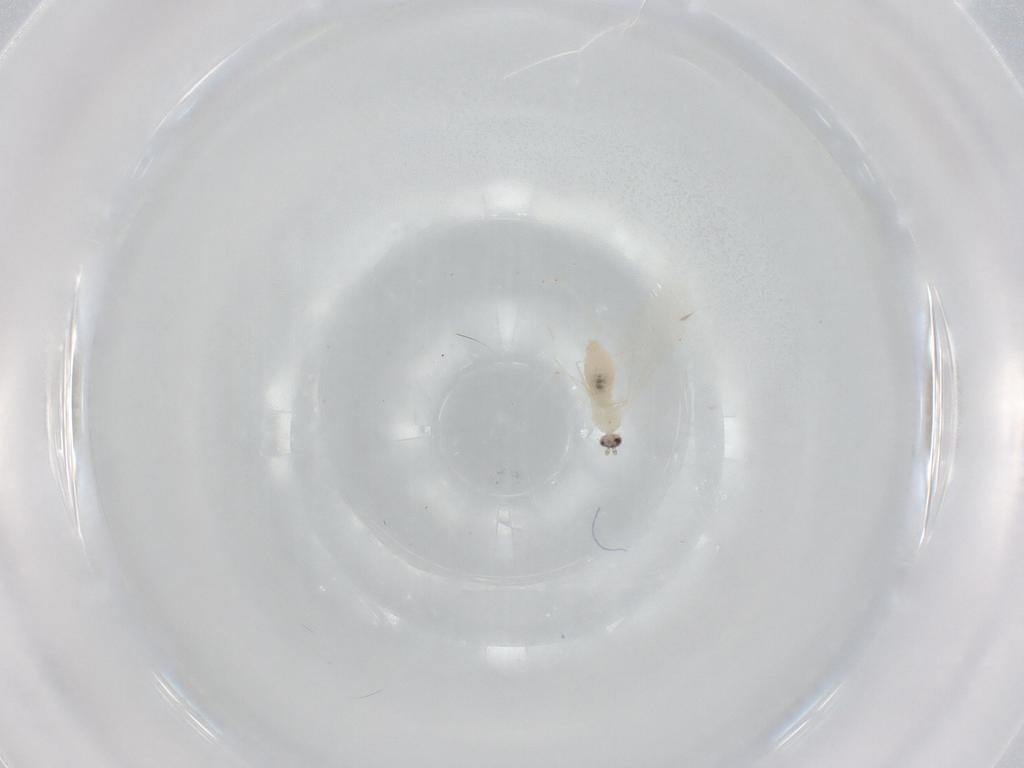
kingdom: Animalia
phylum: Arthropoda
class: Insecta
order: Diptera
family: Cecidomyiidae
